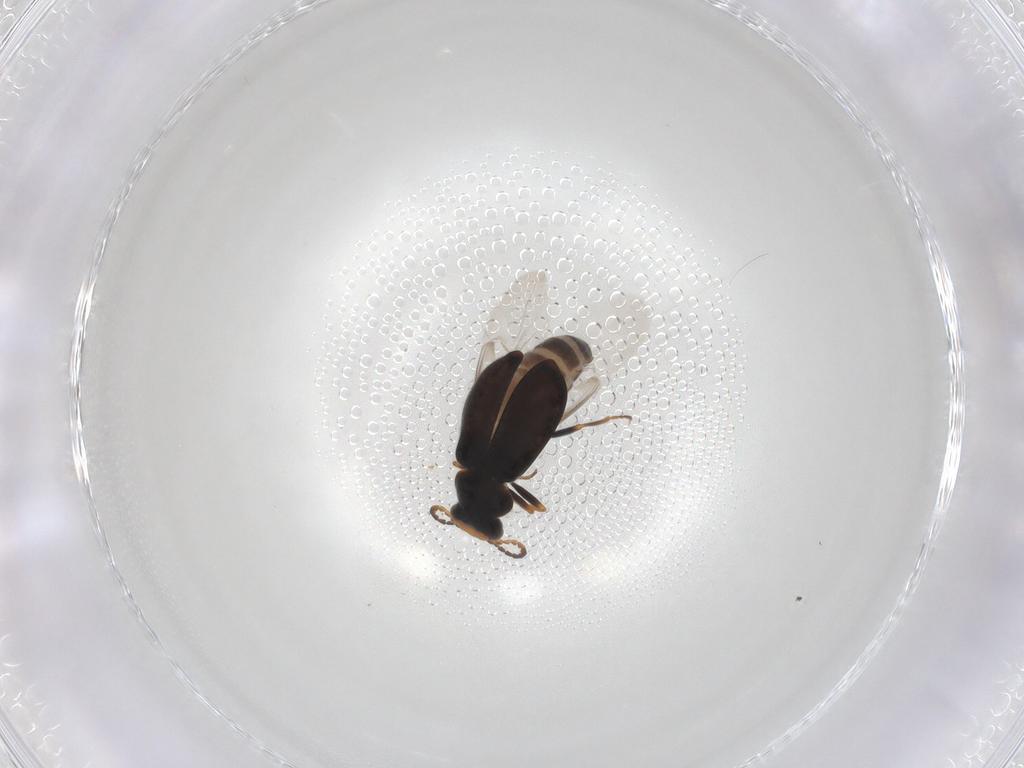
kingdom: Animalia
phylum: Arthropoda
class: Insecta
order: Coleoptera
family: Melyridae
